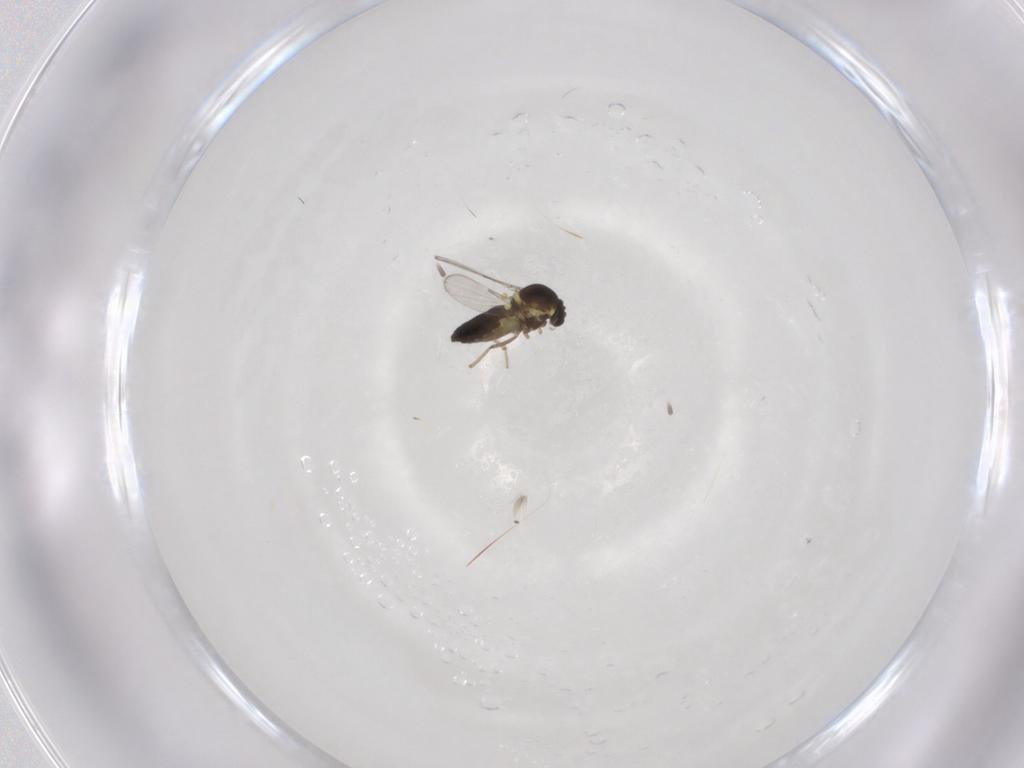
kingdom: Animalia
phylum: Arthropoda
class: Insecta
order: Diptera
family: Ceratopogonidae
